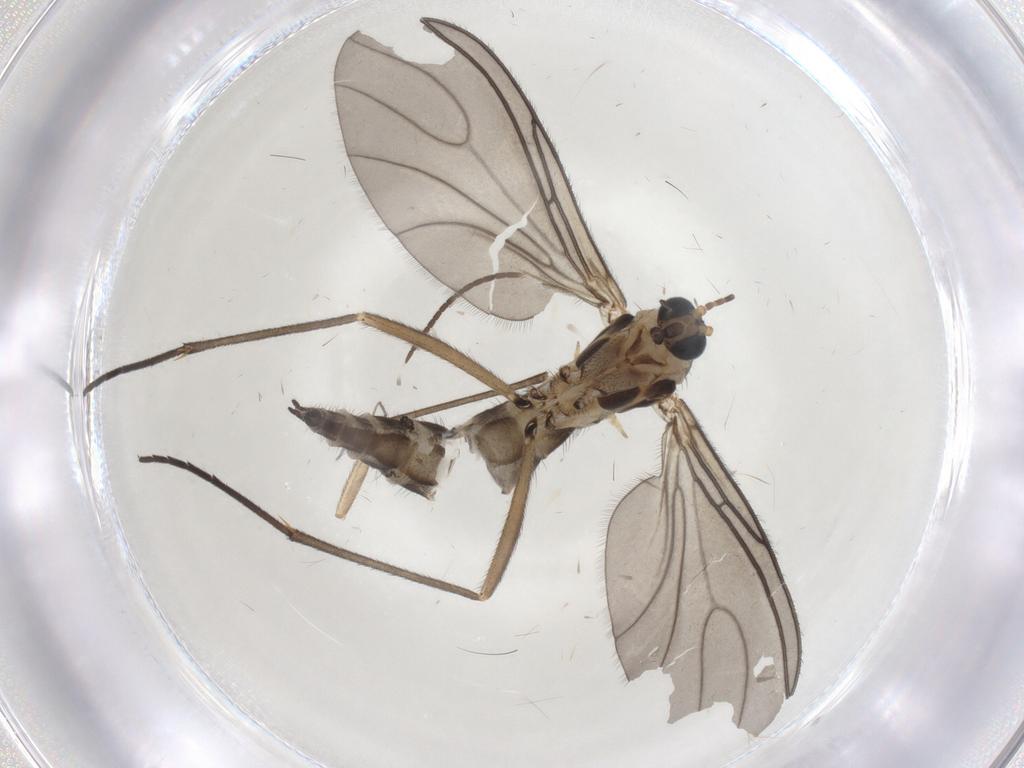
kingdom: Animalia
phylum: Arthropoda
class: Insecta
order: Diptera
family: Sciaridae
